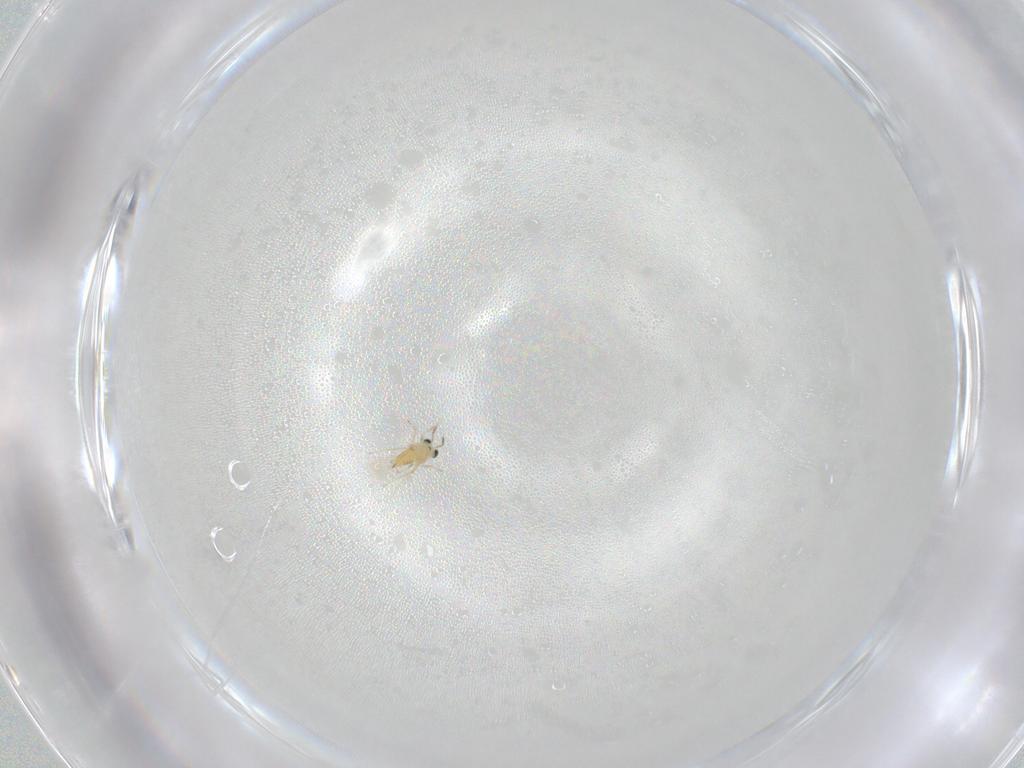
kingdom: Animalia
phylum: Arthropoda
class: Insecta
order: Hymenoptera
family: Trichogrammatidae
